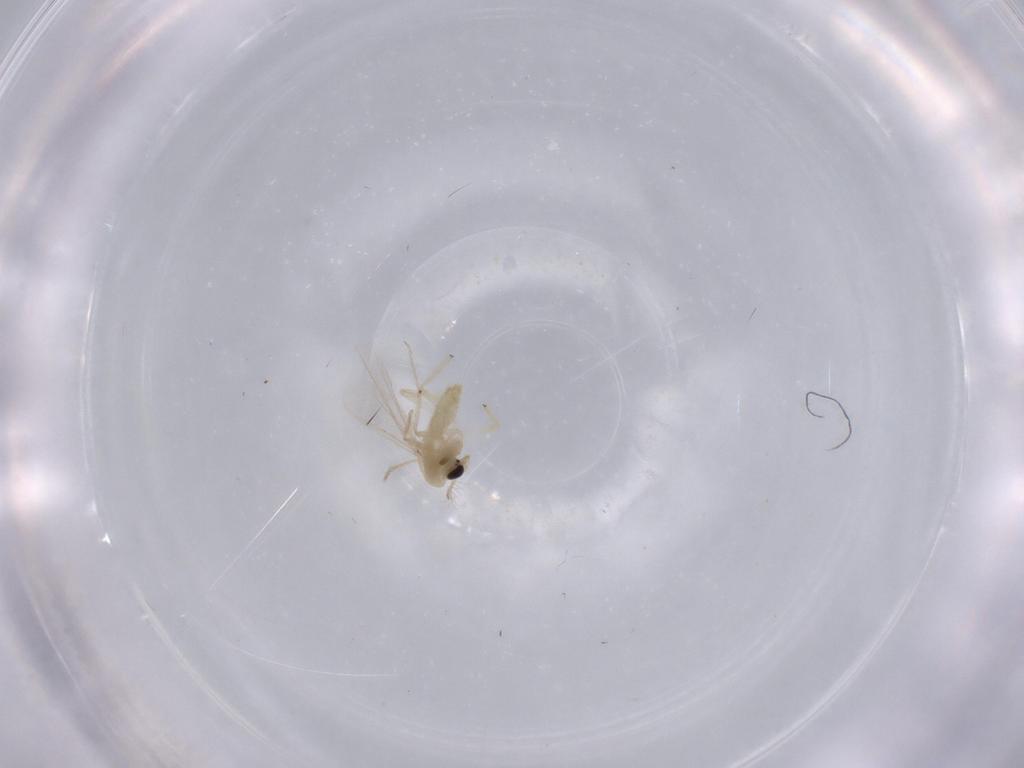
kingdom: Animalia
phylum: Arthropoda
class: Insecta
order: Diptera
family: Chironomidae
